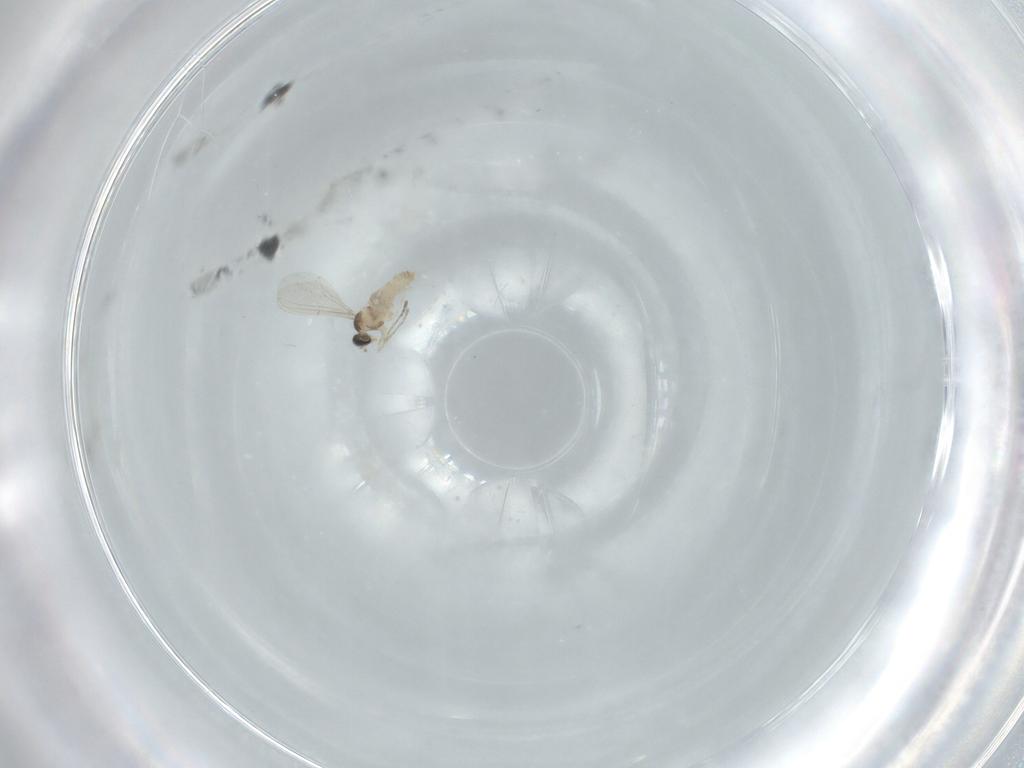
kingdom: Animalia
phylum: Arthropoda
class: Insecta
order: Diptera
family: Cecidomyiidae
